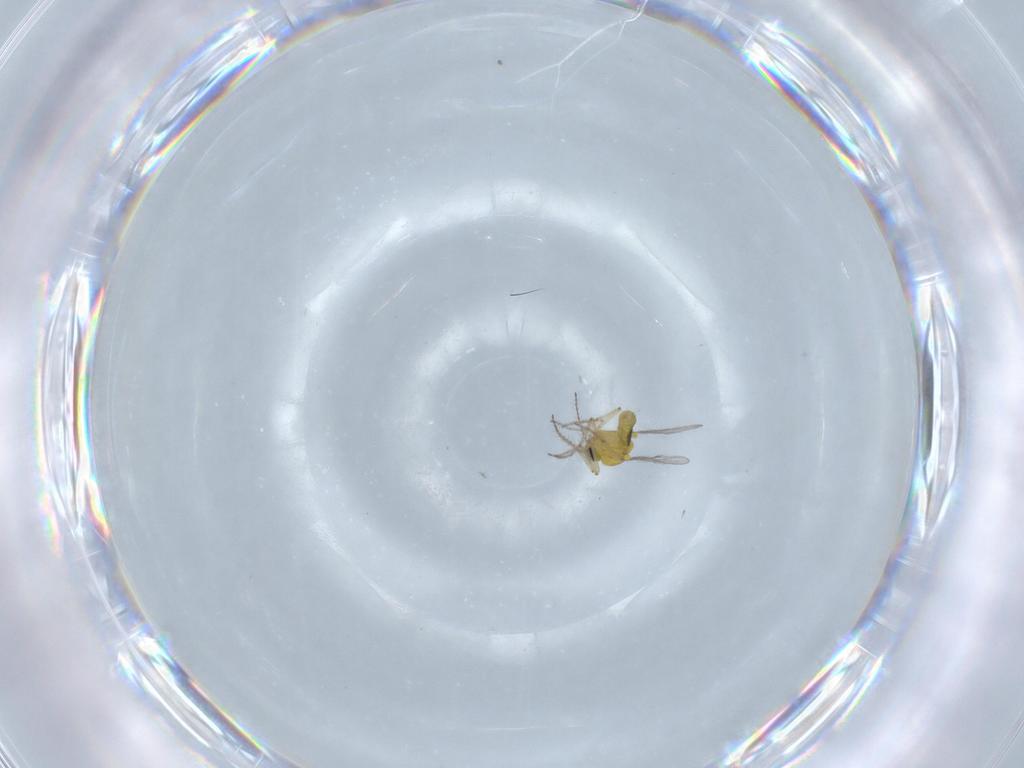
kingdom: Animalia
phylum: Arthropoda
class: Insecta
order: Diptera
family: Ceratopogonidae
